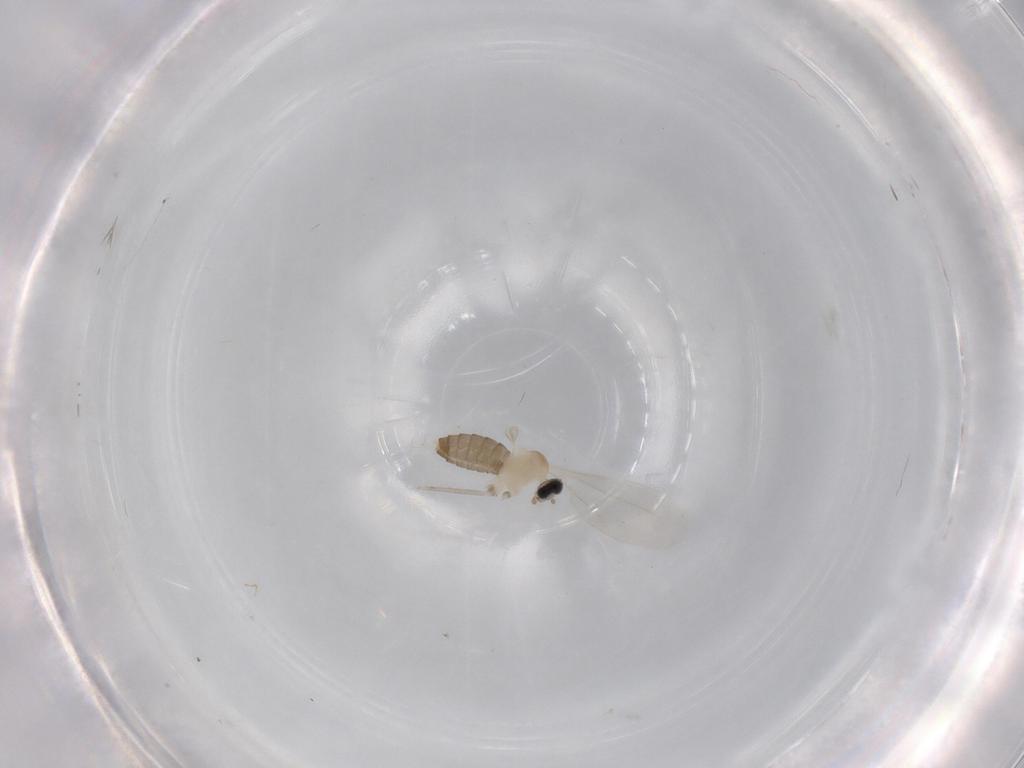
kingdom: Animalia
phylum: Arthropoda
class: Insecta
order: Diptera
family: Cecidomyiidae
